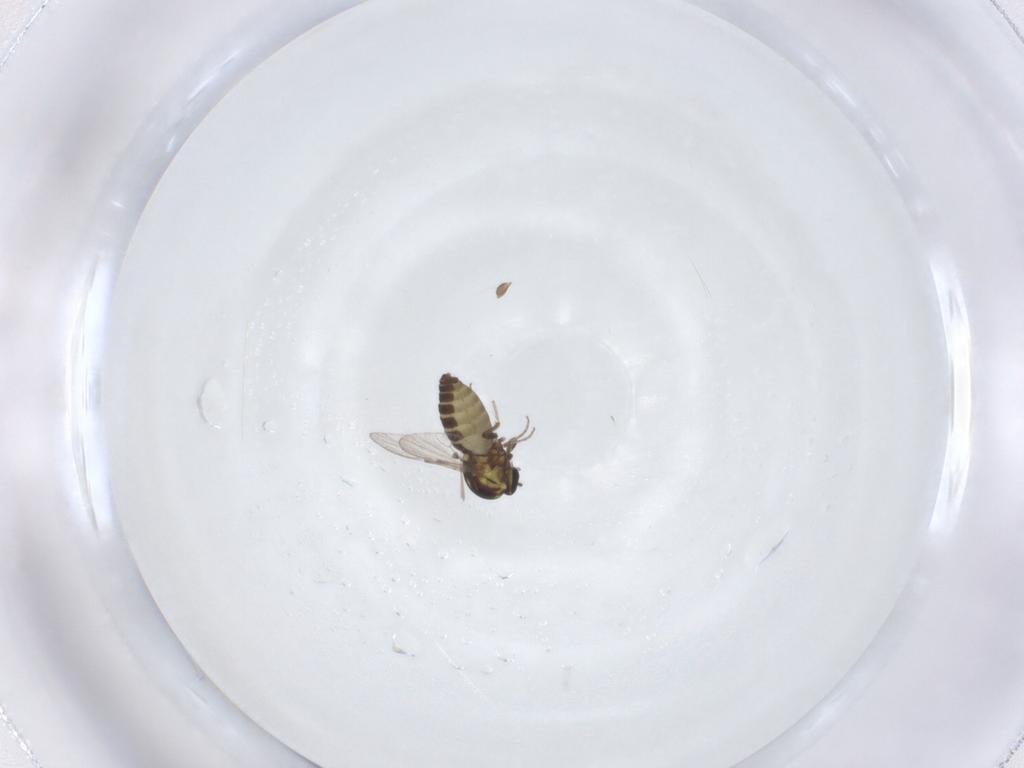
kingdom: Animalia
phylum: Arthropoda
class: Insecta
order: Diptera
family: Ceratopogonidae
